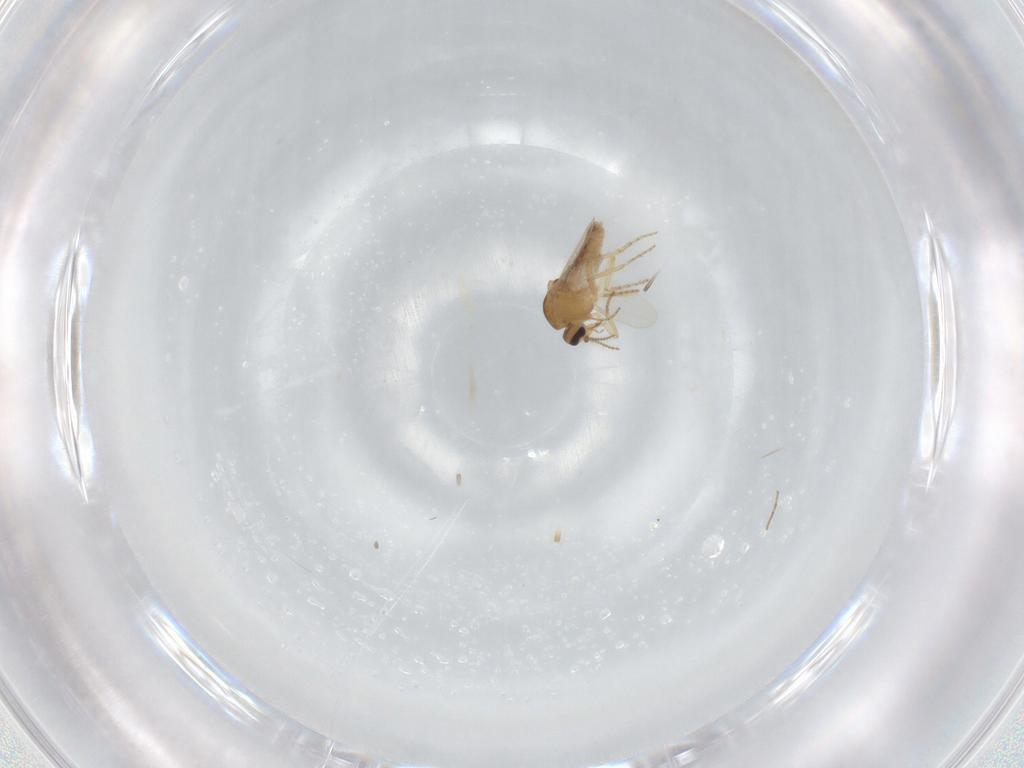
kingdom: Animalia
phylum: Arthropoda
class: Insecta
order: Diptera
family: Ceratopogonidae
